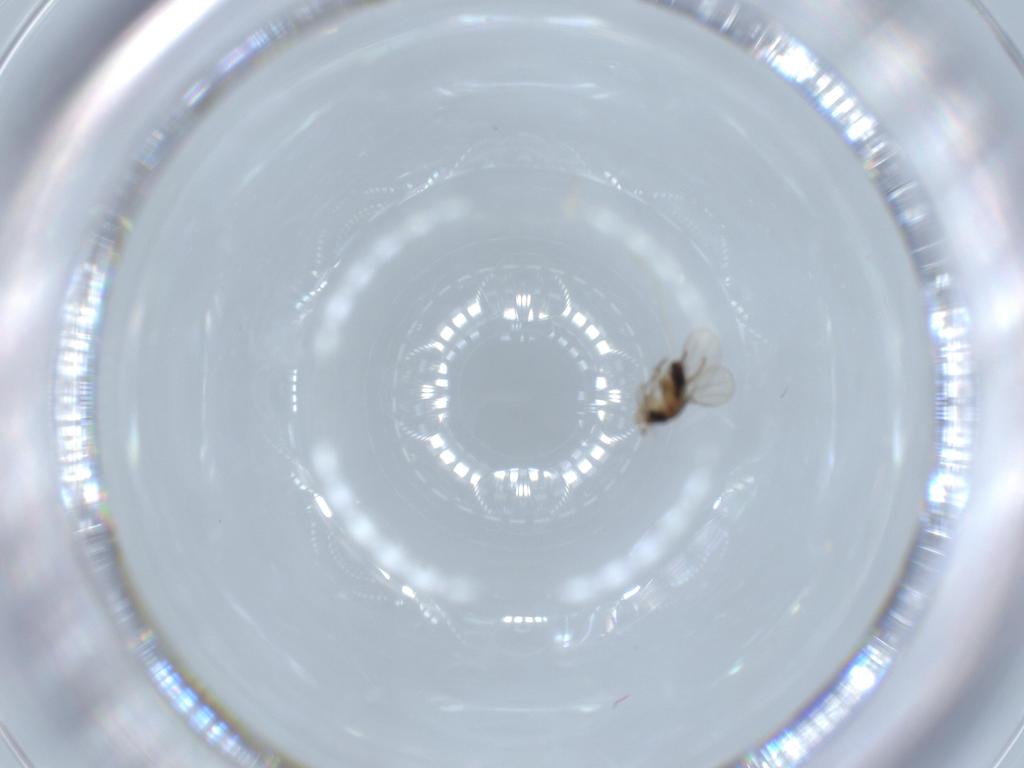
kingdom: Animalia
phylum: Arthropoda
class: Insecta
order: Diptera
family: Phoridae
